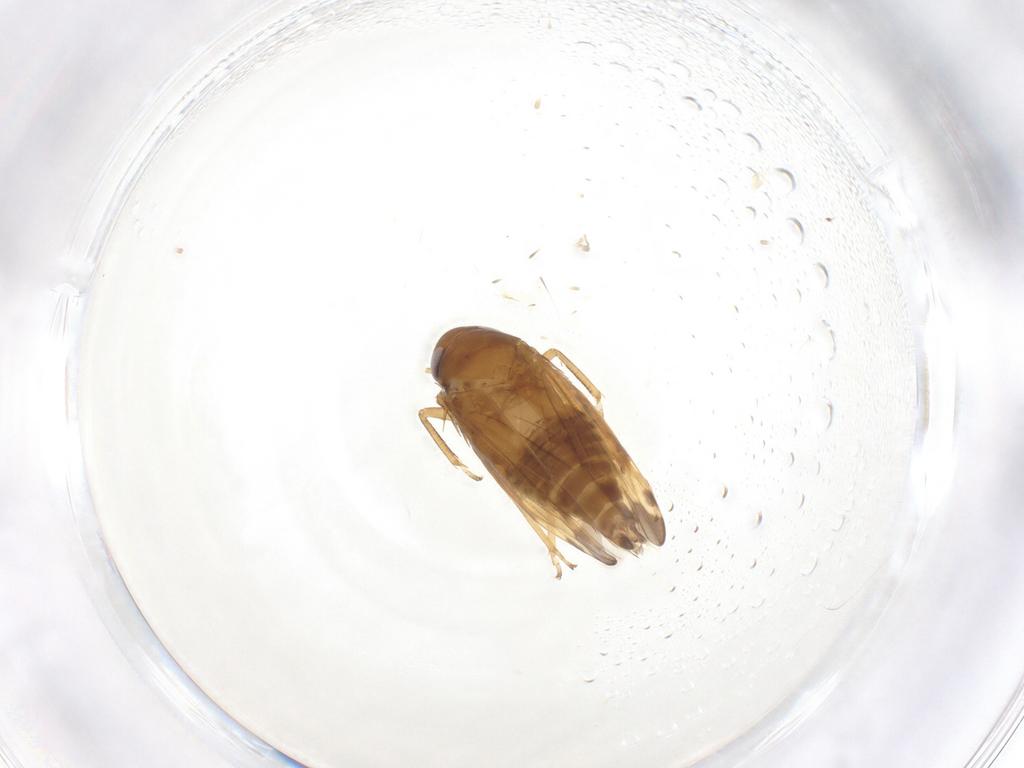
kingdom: Animalia
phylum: Arthropoda
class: Insecta
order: Hemiptera
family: Cicadellidae
